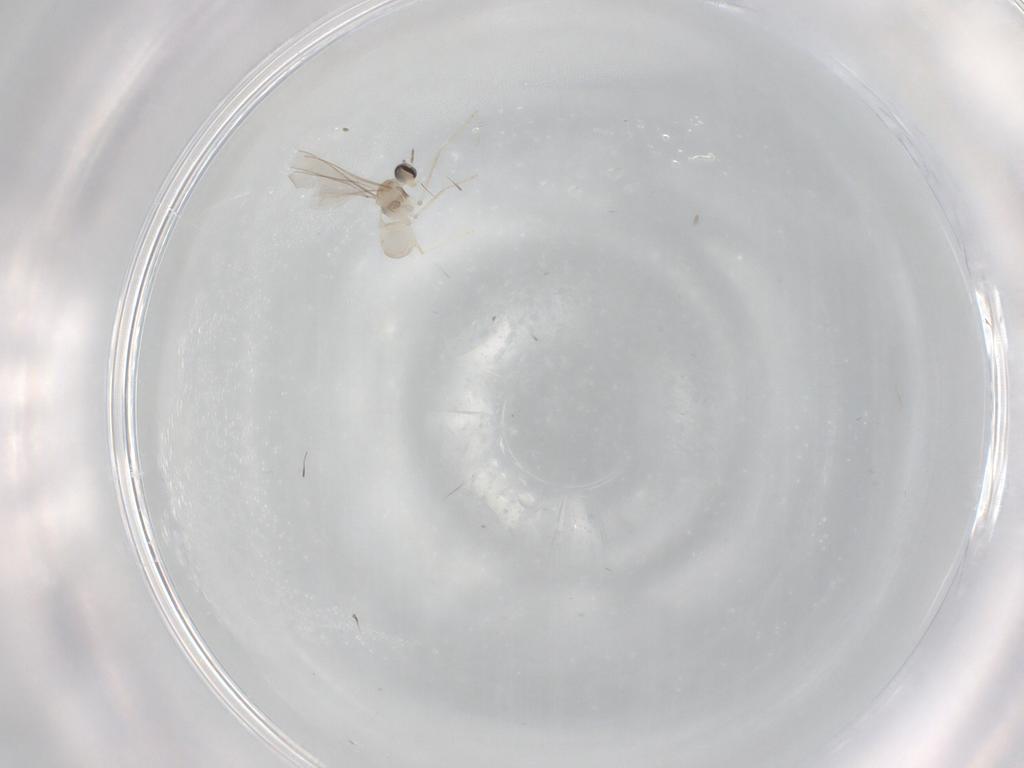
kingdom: Animalia
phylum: Arthropoda
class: Insecta
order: Diptera
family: Cecidomyiidae
